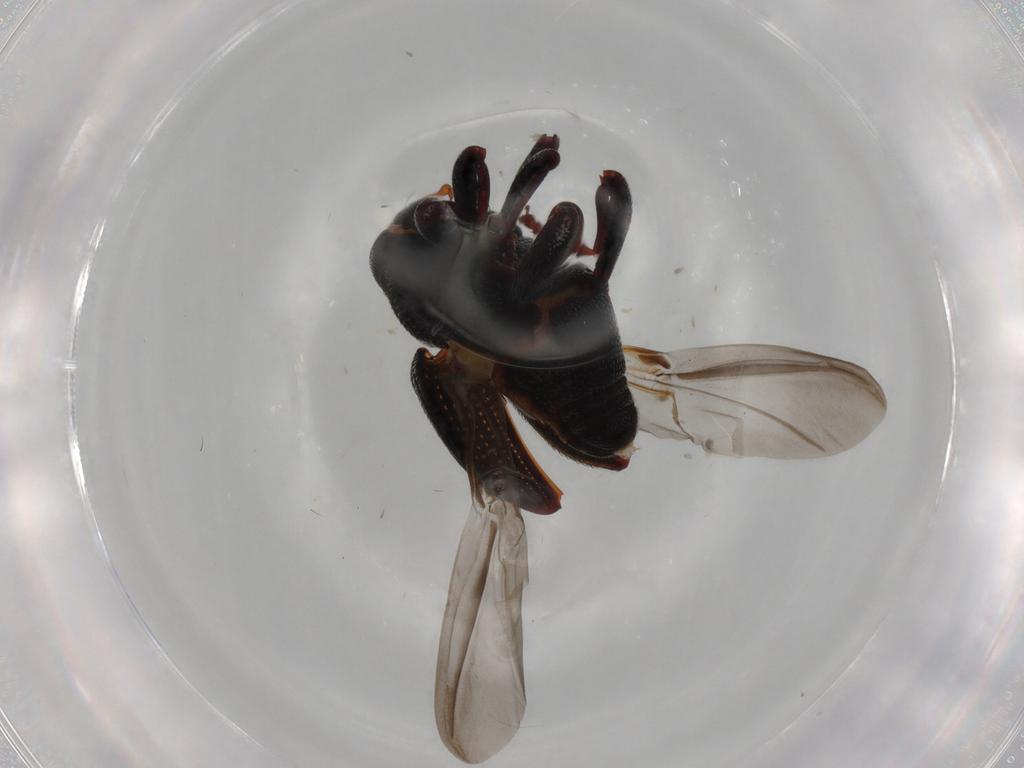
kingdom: Animalia
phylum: Arthropoda
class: Insecta
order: Coleoptera
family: Curculionidae
